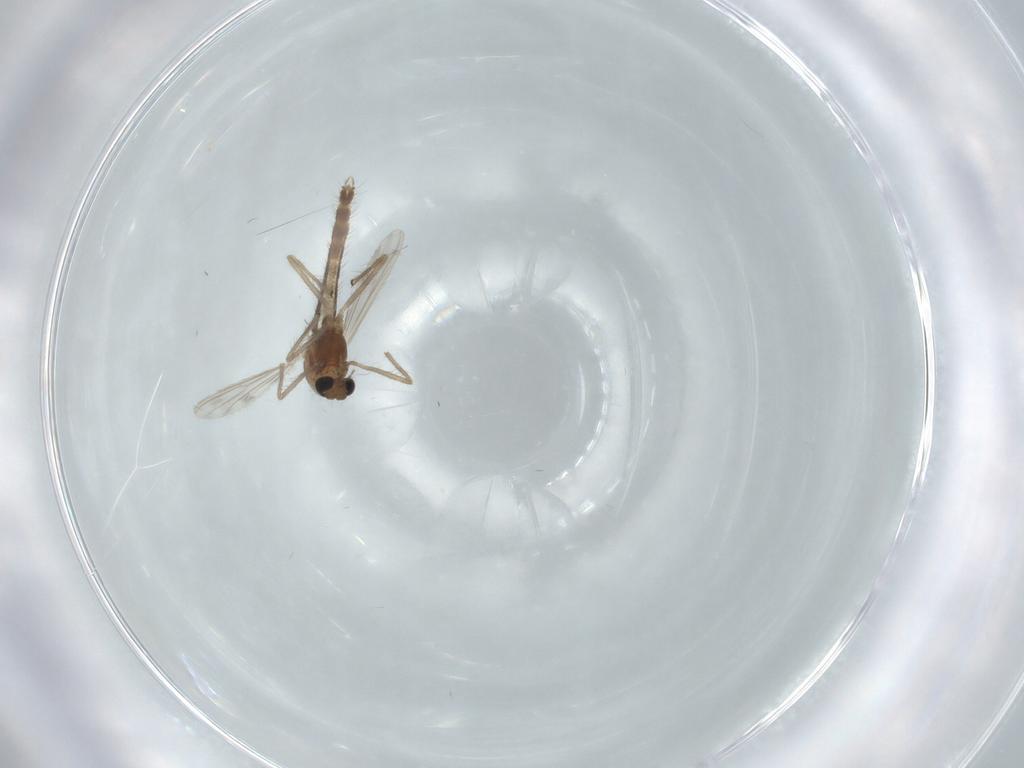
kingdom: Animalia
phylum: Arthropoda
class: Insecta
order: Diptera
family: Chironomidae
